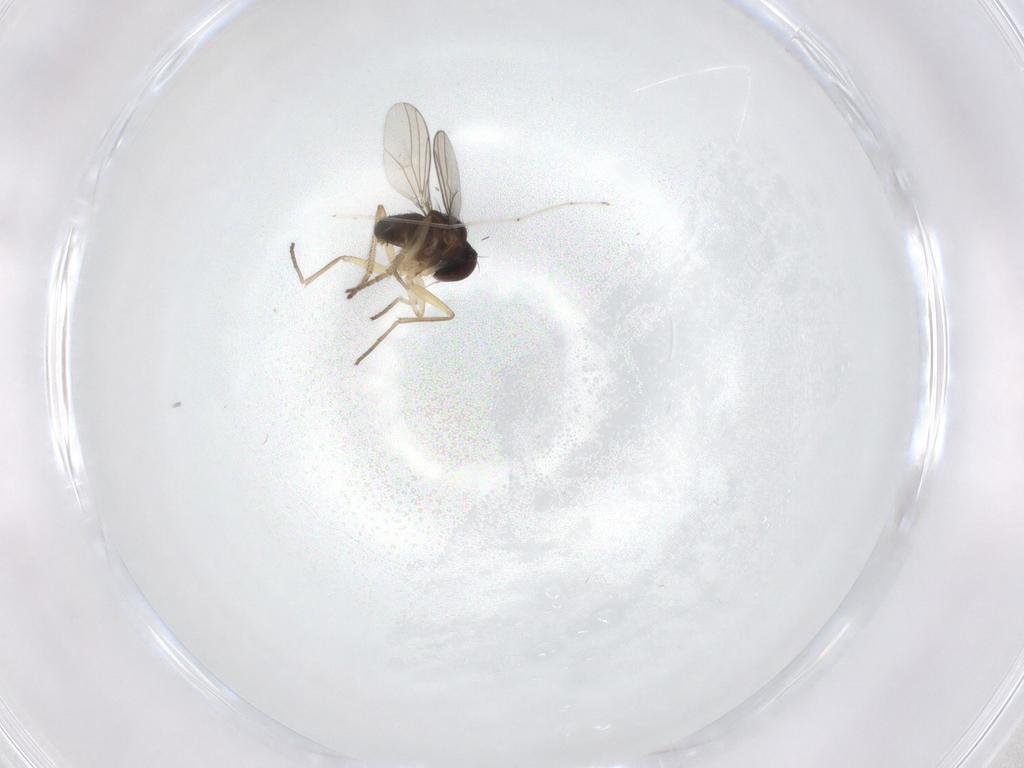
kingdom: Animalia
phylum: Arthropoda
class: Insecta
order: Diptera
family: Dolichopodidae
